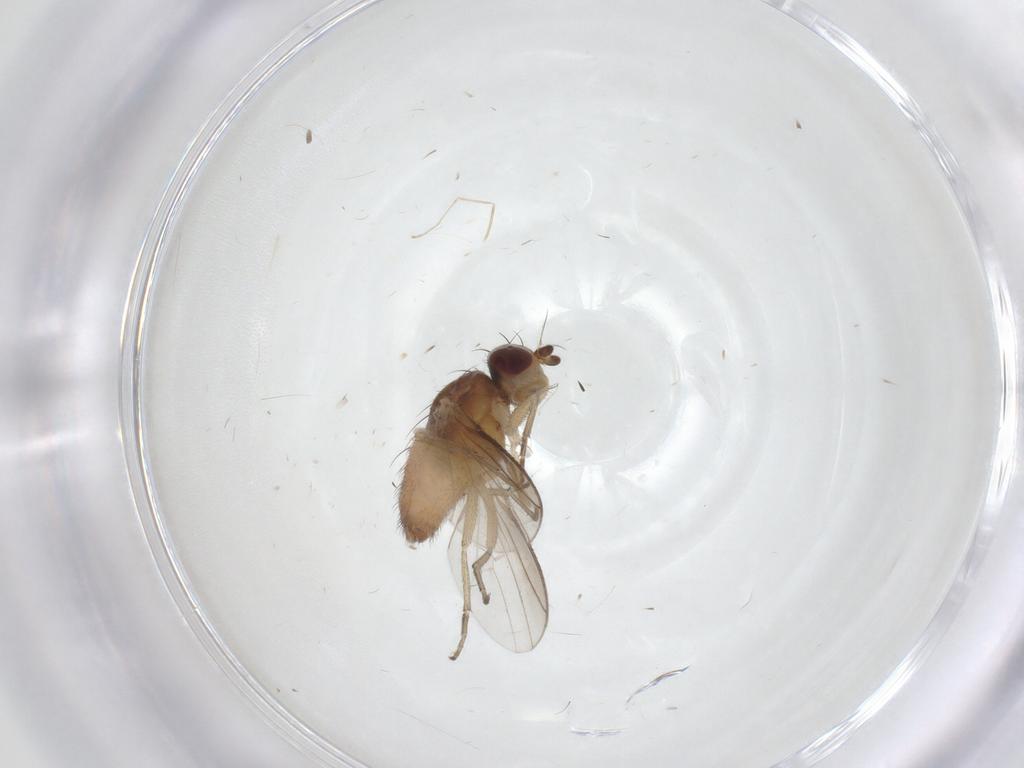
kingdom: Animalia
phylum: Arthropoda
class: Insecta
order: Diptera
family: Heleomyzidae
